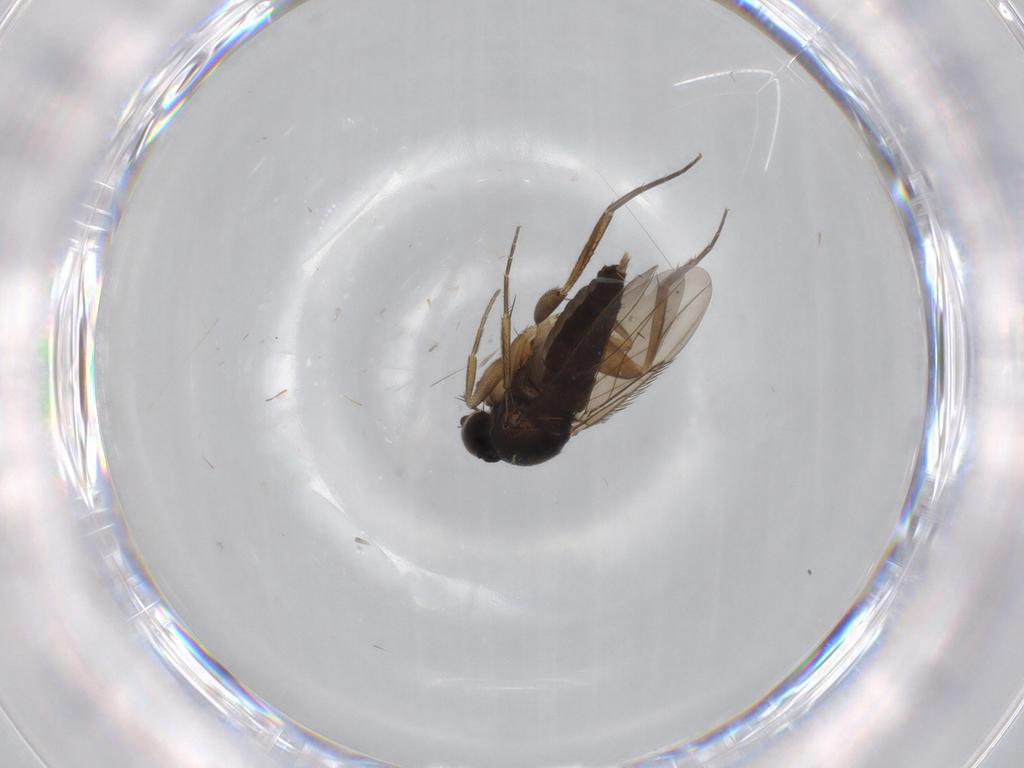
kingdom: Animalia
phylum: Arthropoda
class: Insecta
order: Diptera
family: Phoridae
